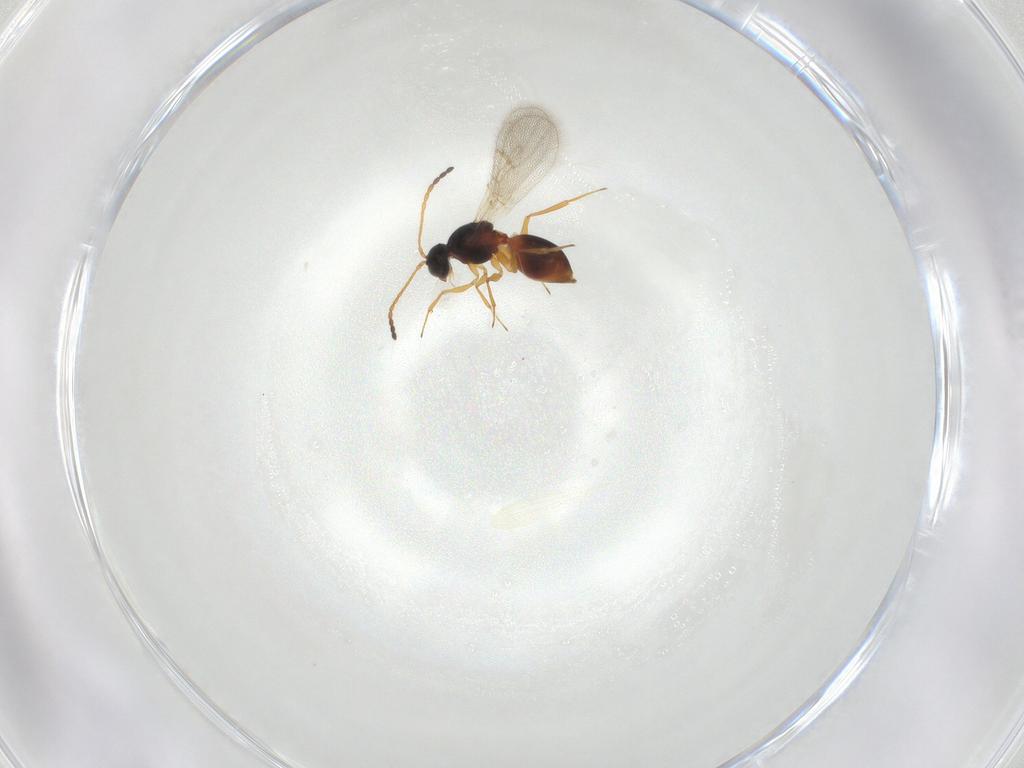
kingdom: Animalia
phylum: Arthropoda
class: Insecta
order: Hymenoptera
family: Figitidae
